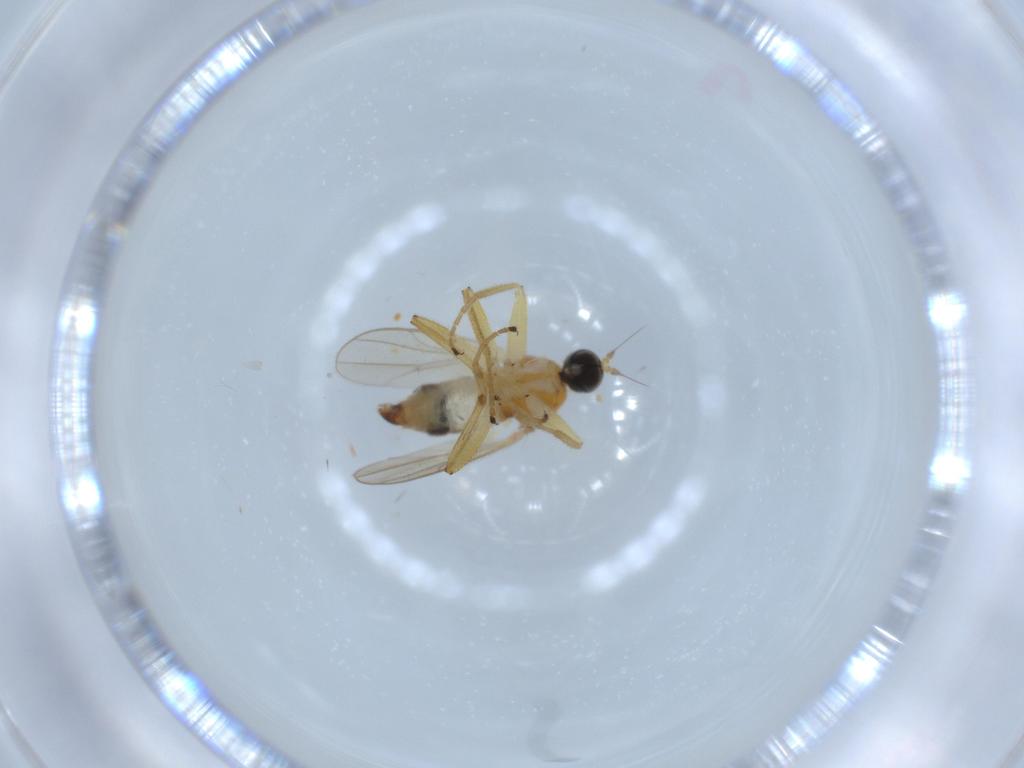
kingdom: Animalia
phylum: Arthropoda
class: Insecta
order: Diptera
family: Hybotidae
